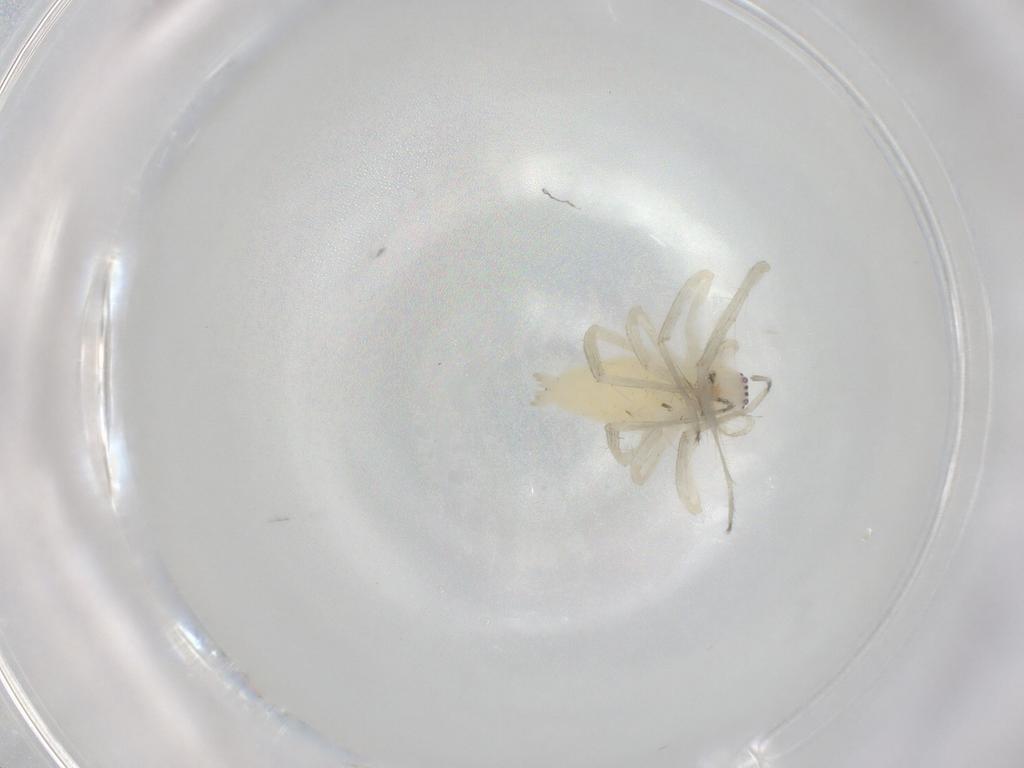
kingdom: Animalia
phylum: Arthropoda
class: Arachnida
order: Araneae
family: Anyphaenidae
